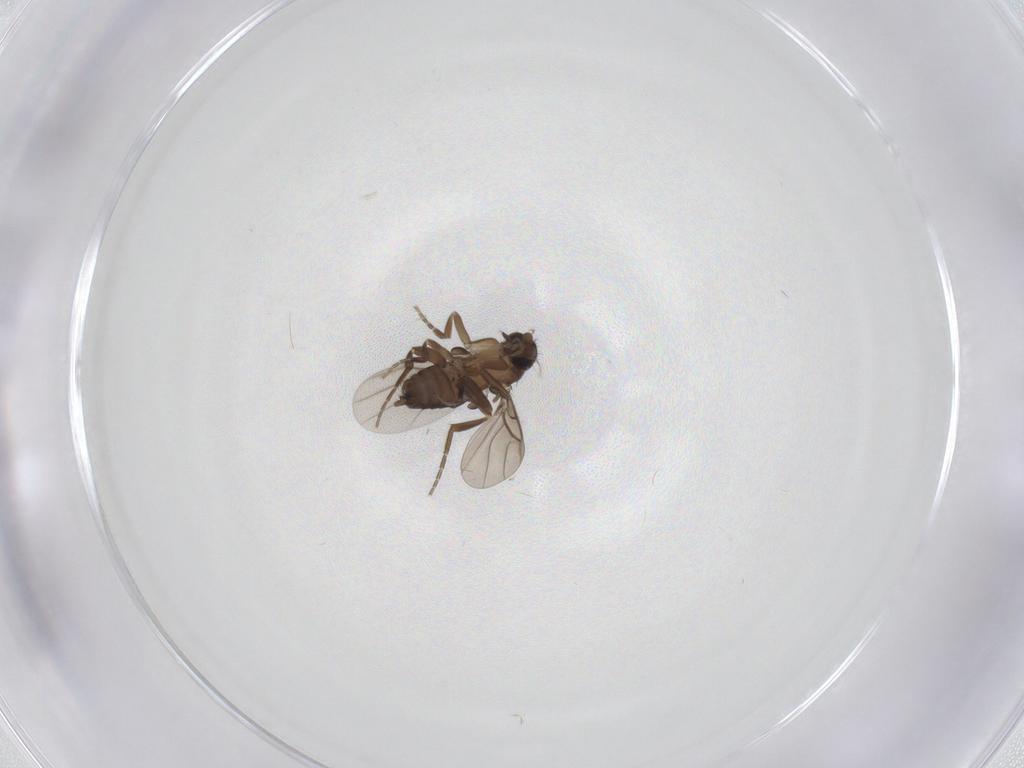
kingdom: Animalia
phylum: Arthropoda
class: Insecta
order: Diptera
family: Phoridae
